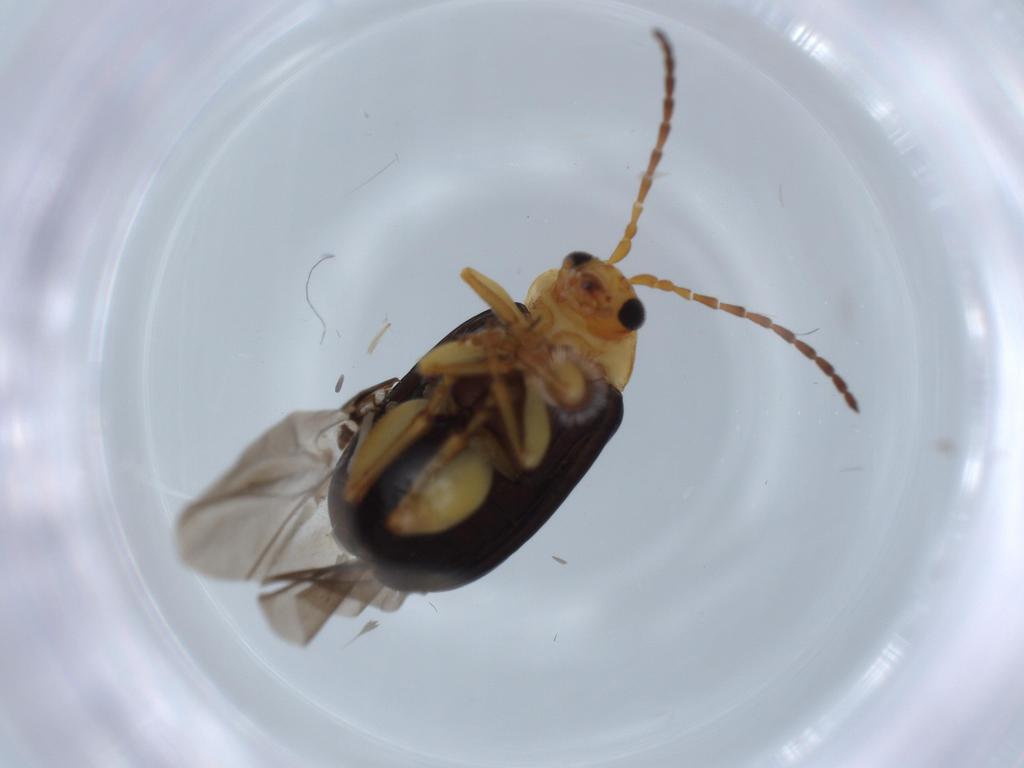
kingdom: Animalia
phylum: Arthropoda
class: Insecta
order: Coleoptera
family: Chrysomelidae
